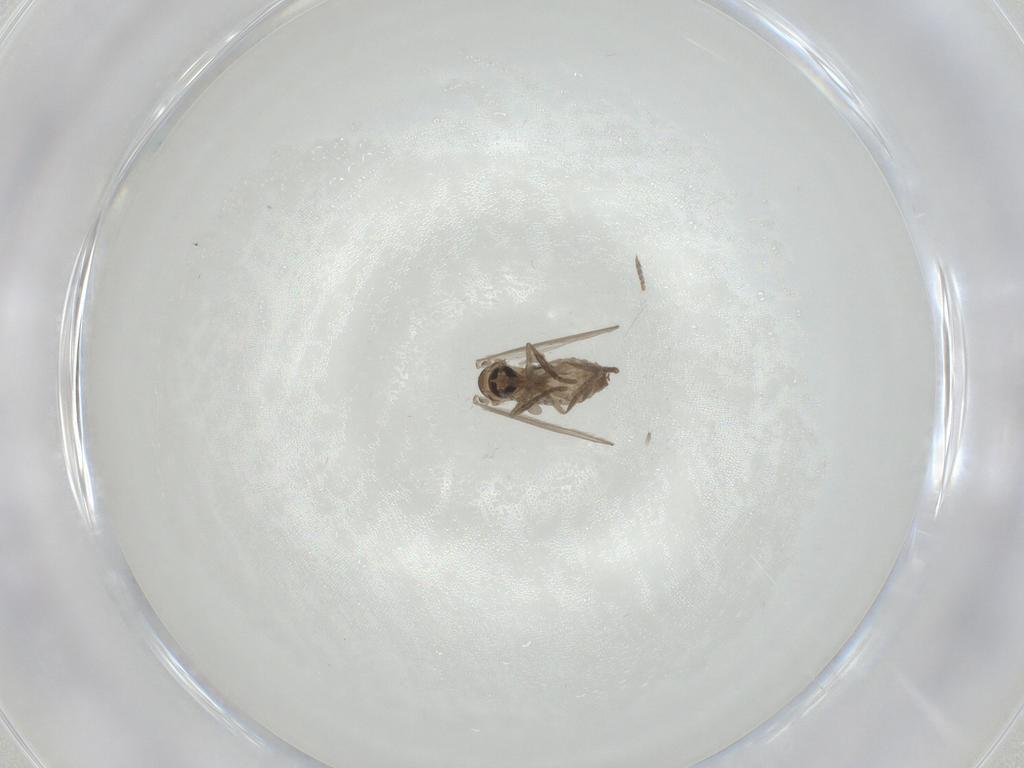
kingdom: Animalia
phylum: Arthropoda
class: Insecta
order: Diptera
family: Psychodidae
